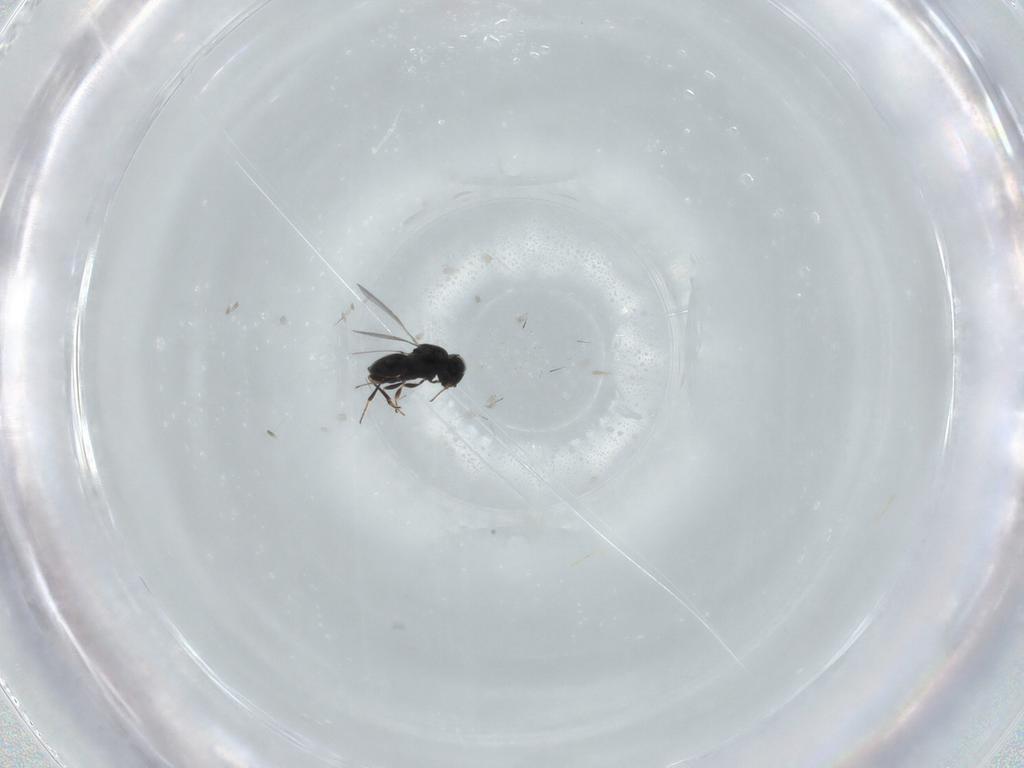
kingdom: Animalia
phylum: Arthropoda
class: Insecta
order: Hymenoptera
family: Scelionidae
